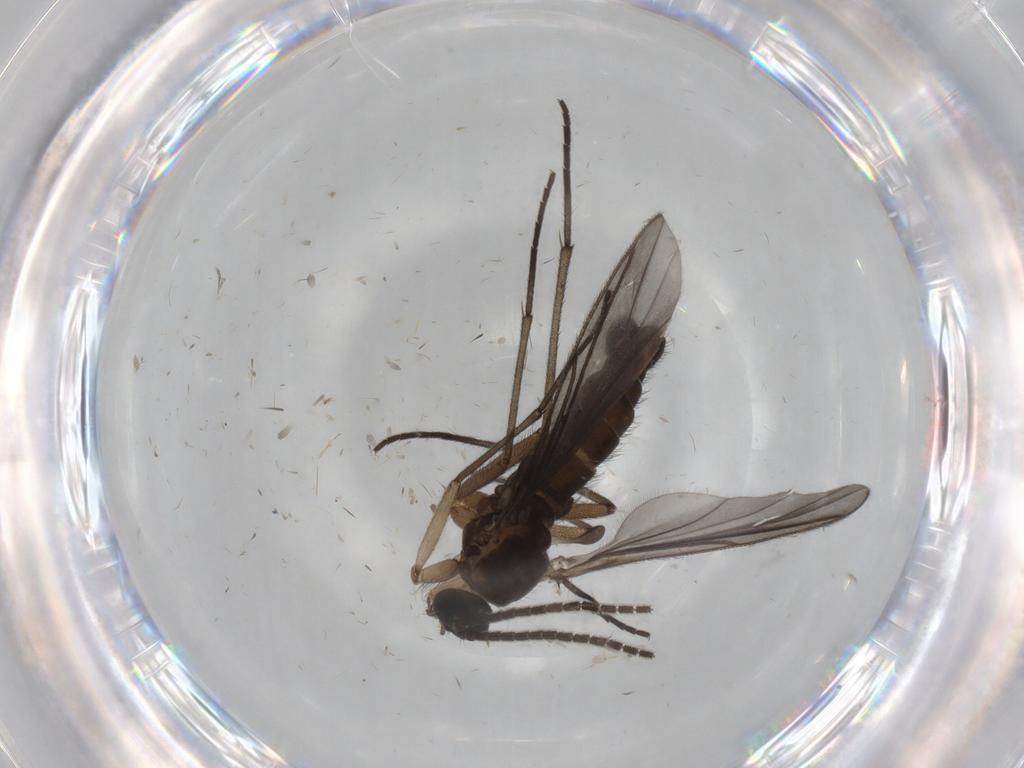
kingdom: Animalia
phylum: Arthropoda
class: Insecta
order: Diptera
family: Sciaridae
